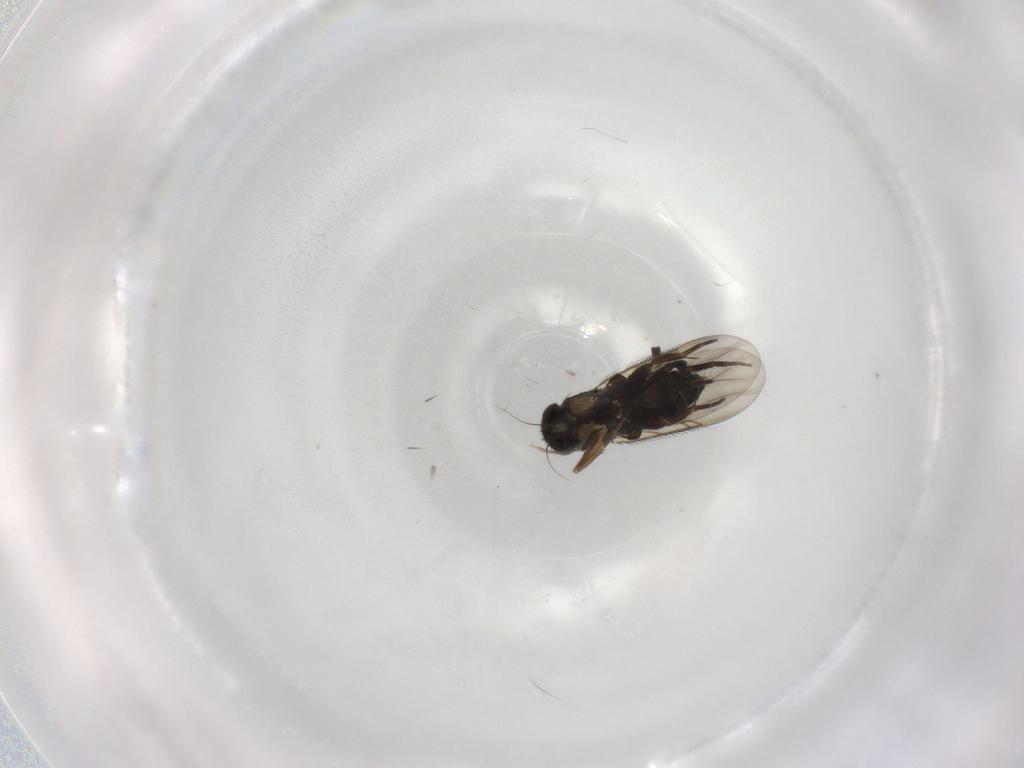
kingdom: Animalia
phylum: Arthropoda
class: Insecta
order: Diptera
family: Phoridae
